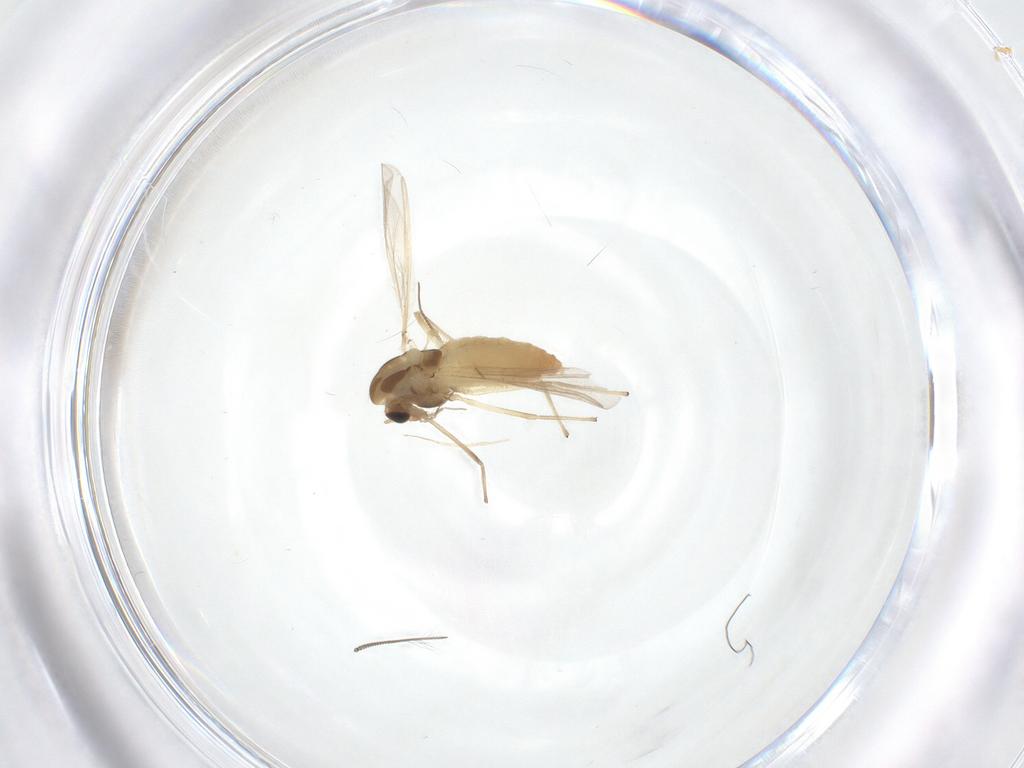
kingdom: Animalia
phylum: Arthropoda
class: Insecta
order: Diptera
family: Chironomidae
